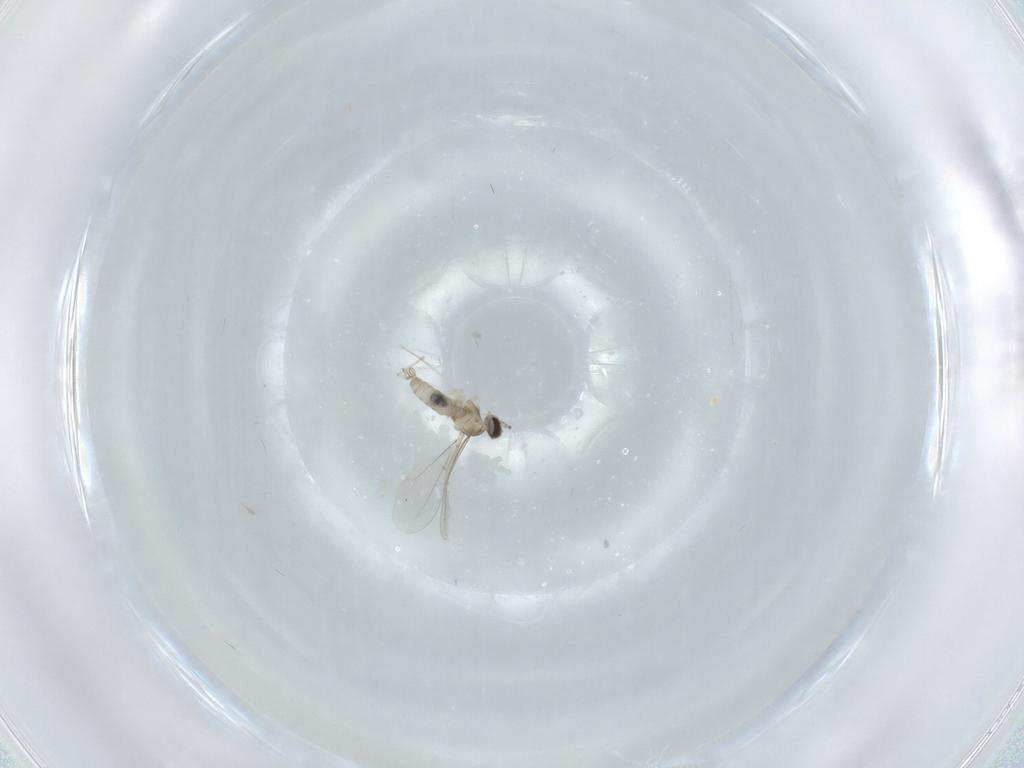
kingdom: Animalia
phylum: Arthropoda
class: Insecta
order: Diptera
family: Cecidomyiidae
